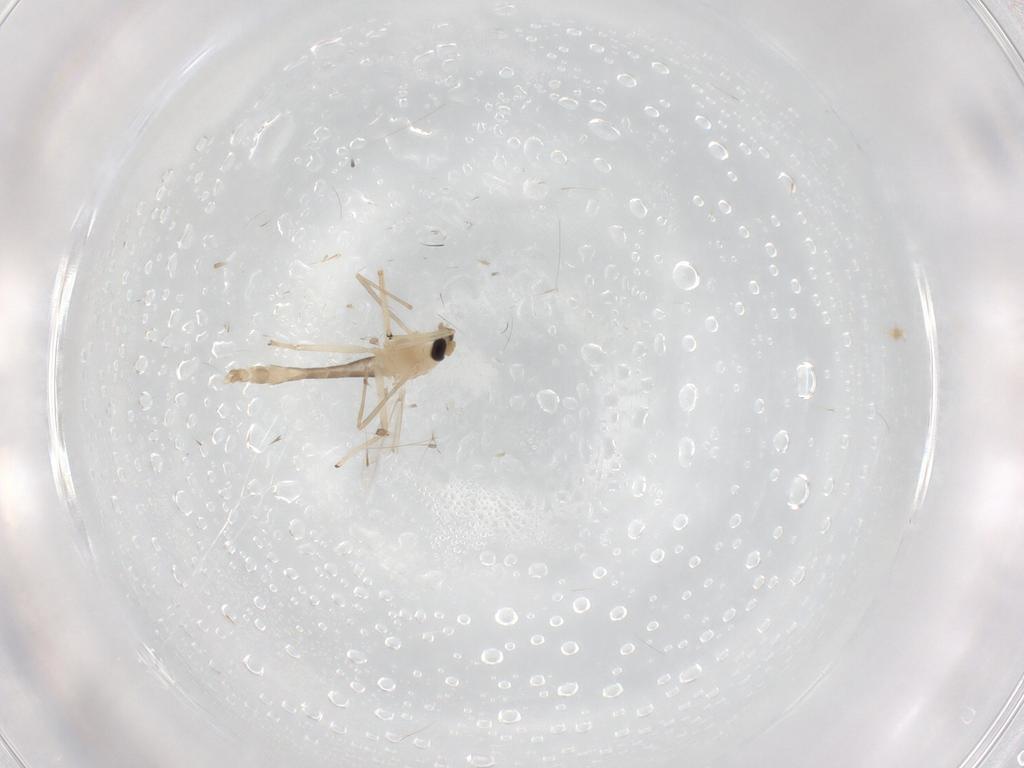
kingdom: Animalia
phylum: Arthropoda
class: Insecta
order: Diptera
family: Chironomidae
